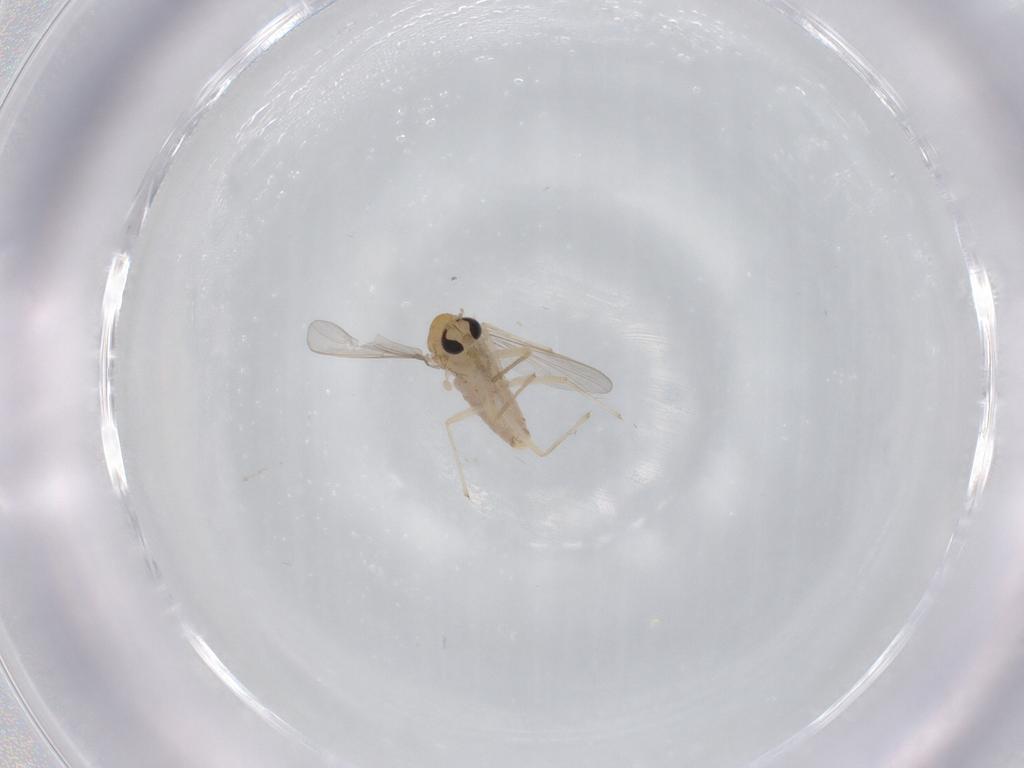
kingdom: Animalia
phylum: Arthropoda
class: Insecta
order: Diptera
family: Chironomidae
